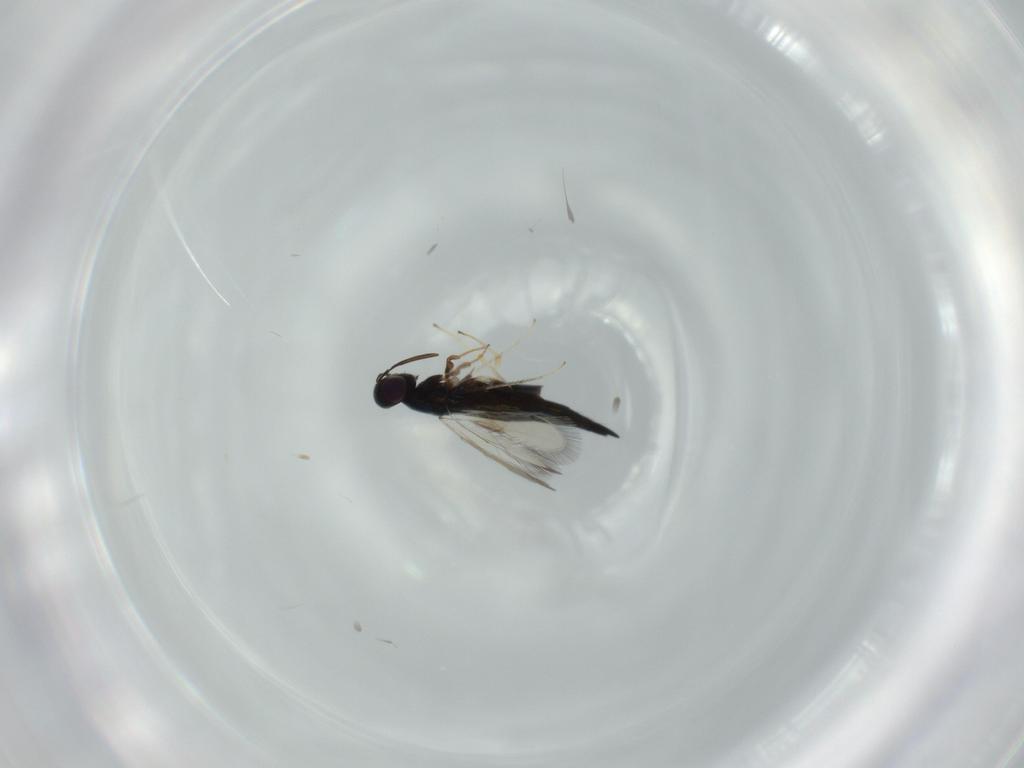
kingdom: Animalia
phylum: Arthropoda
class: Insecta
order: Hymenoptera
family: Signiphoridae
